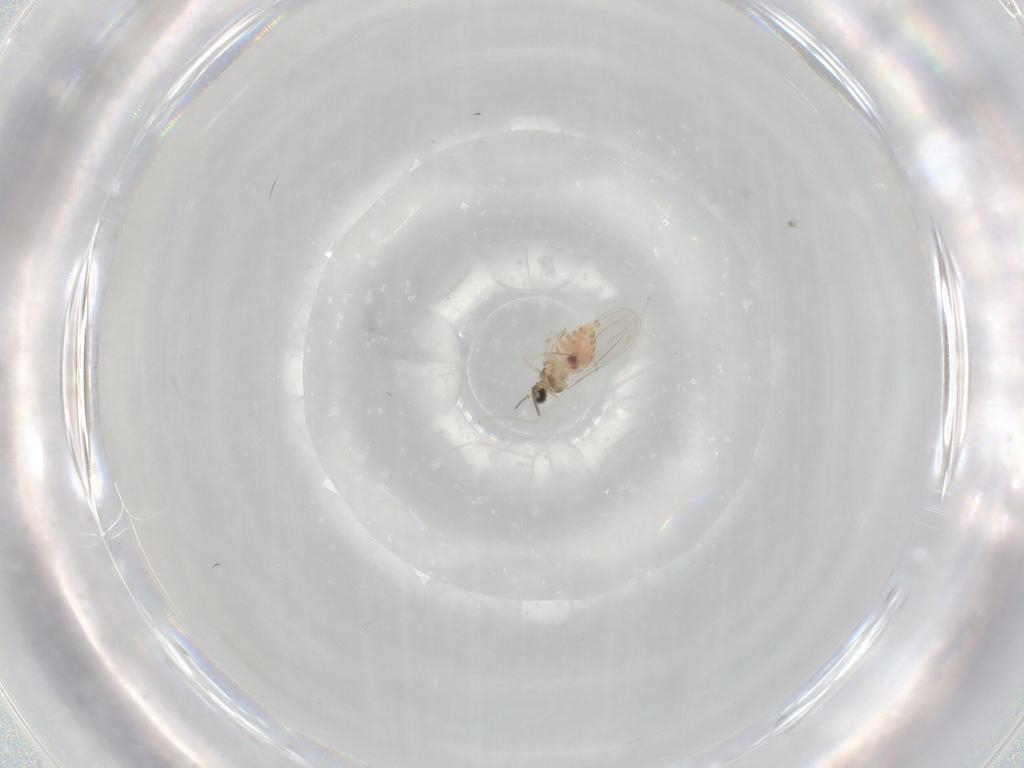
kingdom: Animalia
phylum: Arthropoda
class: Insecta
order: Diptera
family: Cecidomyiidae
